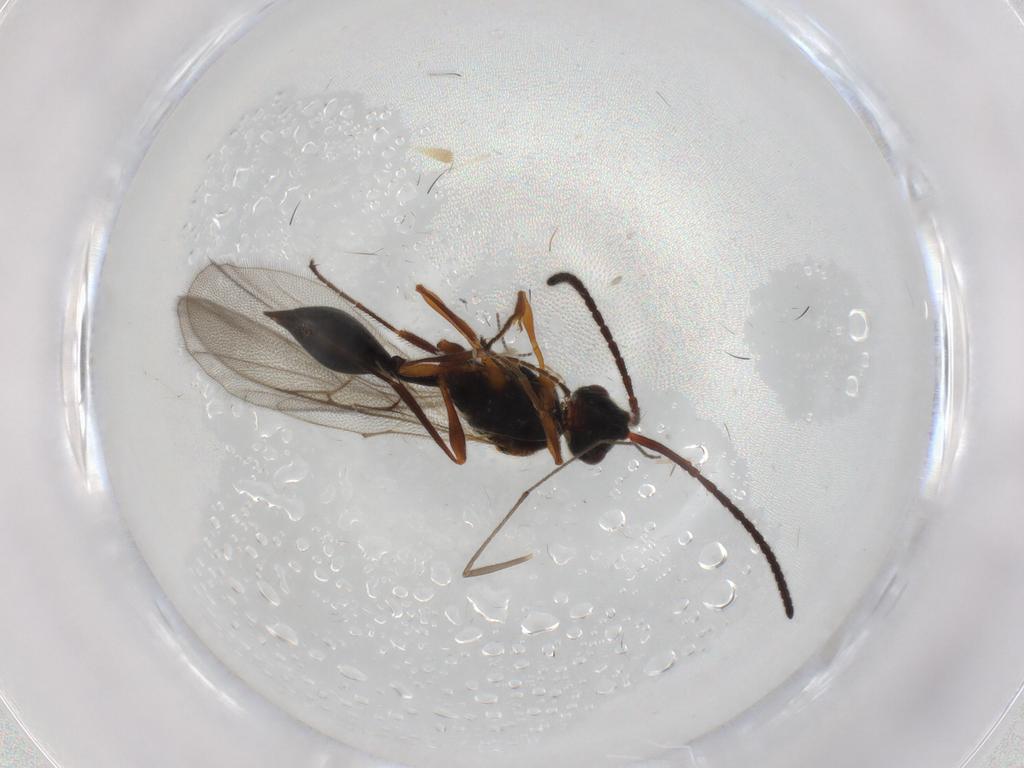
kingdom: Animalia
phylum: Arthropoda
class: Insecta
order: Hymenoptera
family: Diapriidae
